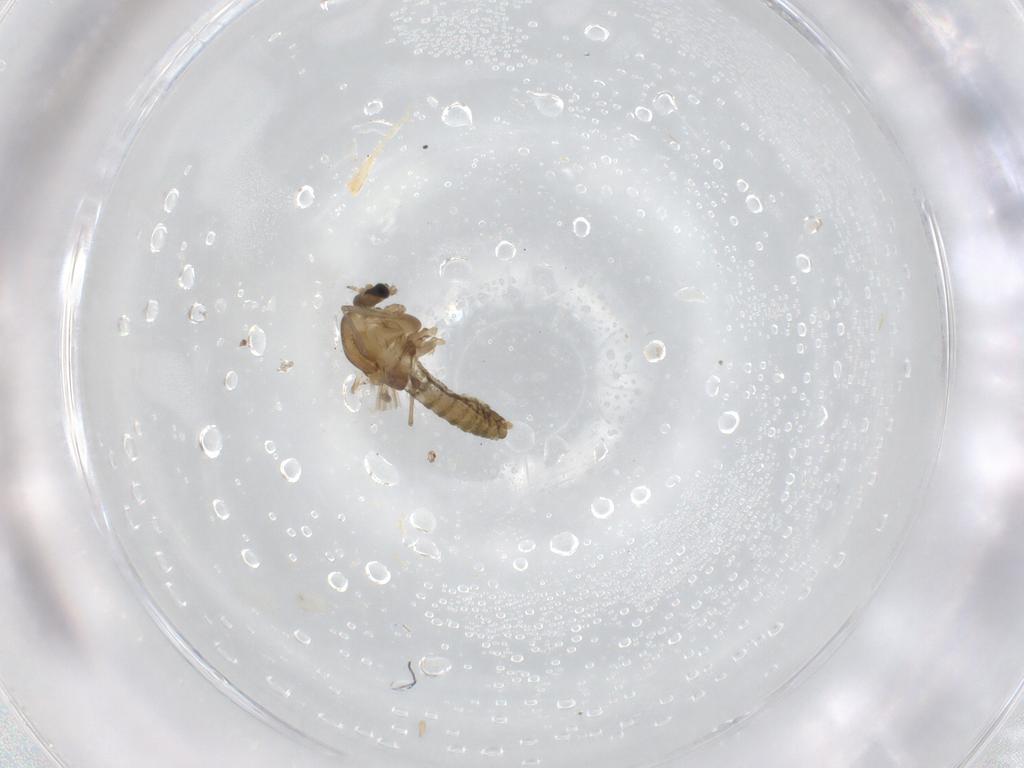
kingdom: Animalia
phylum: Arthropoda
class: Insecta
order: Diptera
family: Chironomidae
